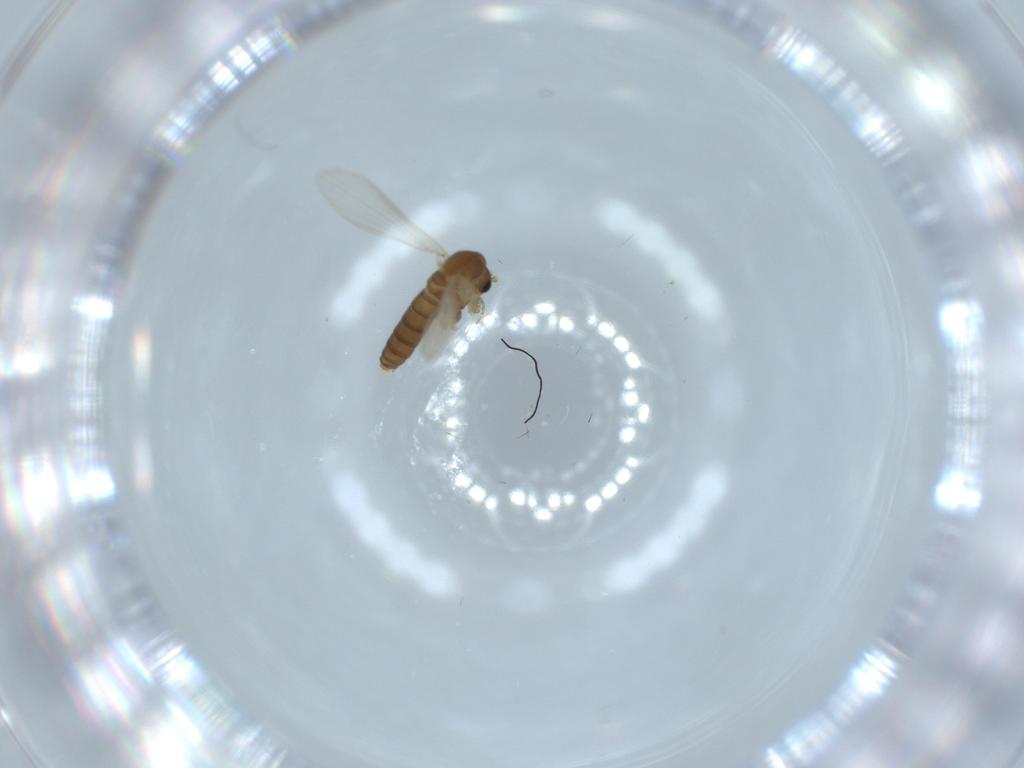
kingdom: Animalia
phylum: Arthropoda
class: Insecta
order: Diptera
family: Psychodidae
